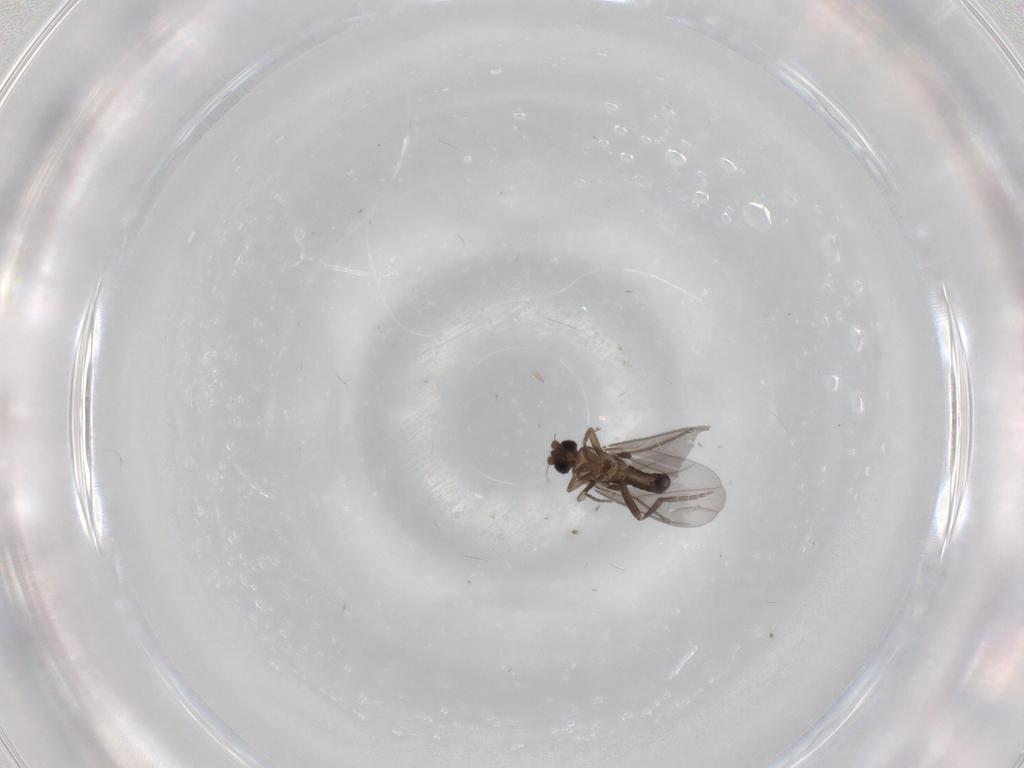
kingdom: Animalia
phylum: Arthropoda
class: Insecta
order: Diptera
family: Phoridae
